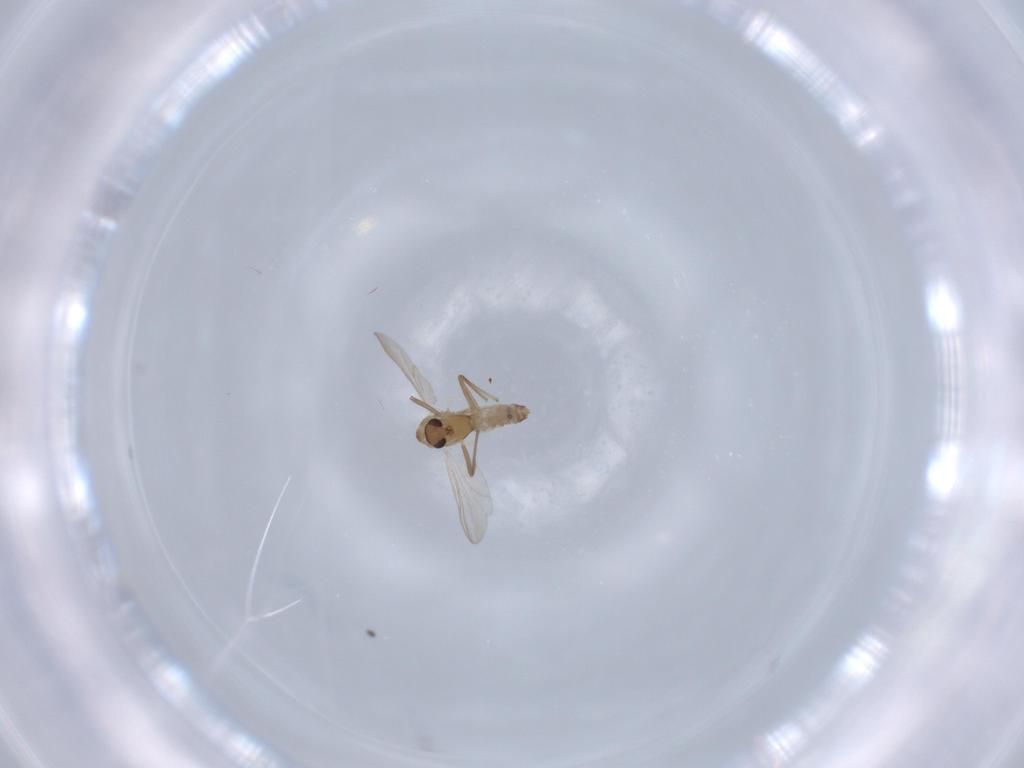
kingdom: Animalia
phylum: Arthropoda
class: Insecta
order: Diptera
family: Chironomidae
